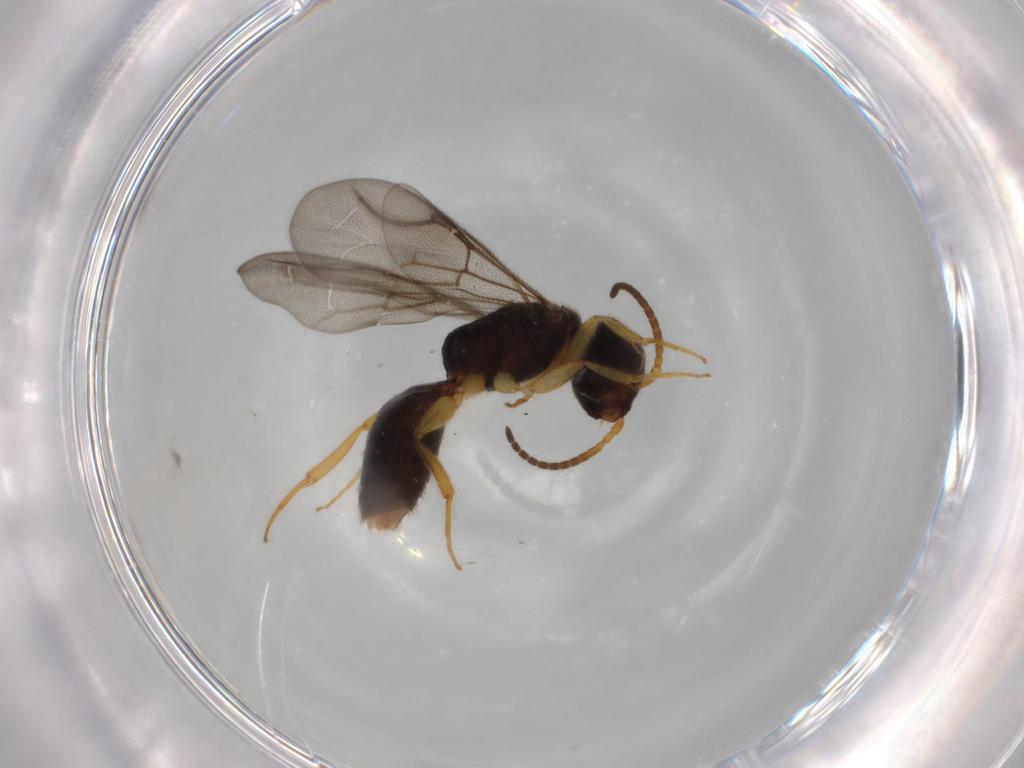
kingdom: Animalia
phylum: Arthropoda
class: Insecta
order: Hymenoptera
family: Bethylidae
